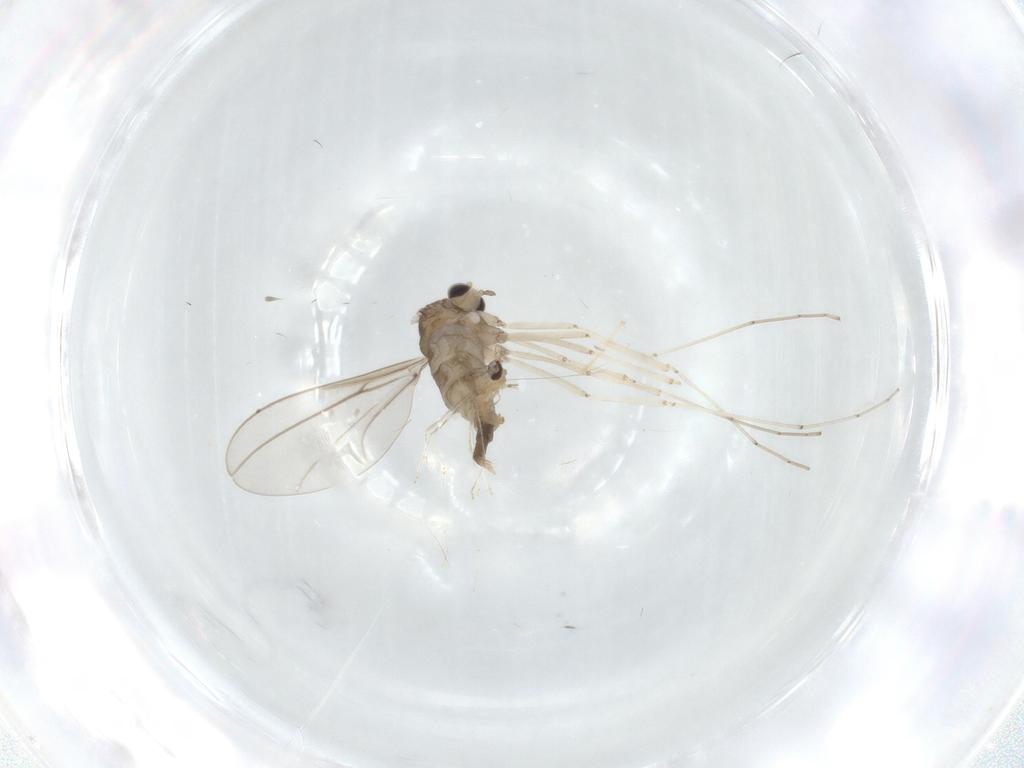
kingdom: Animalia
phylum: Arthropoda
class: Insecta
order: Diptera
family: Cecidomyiidae
